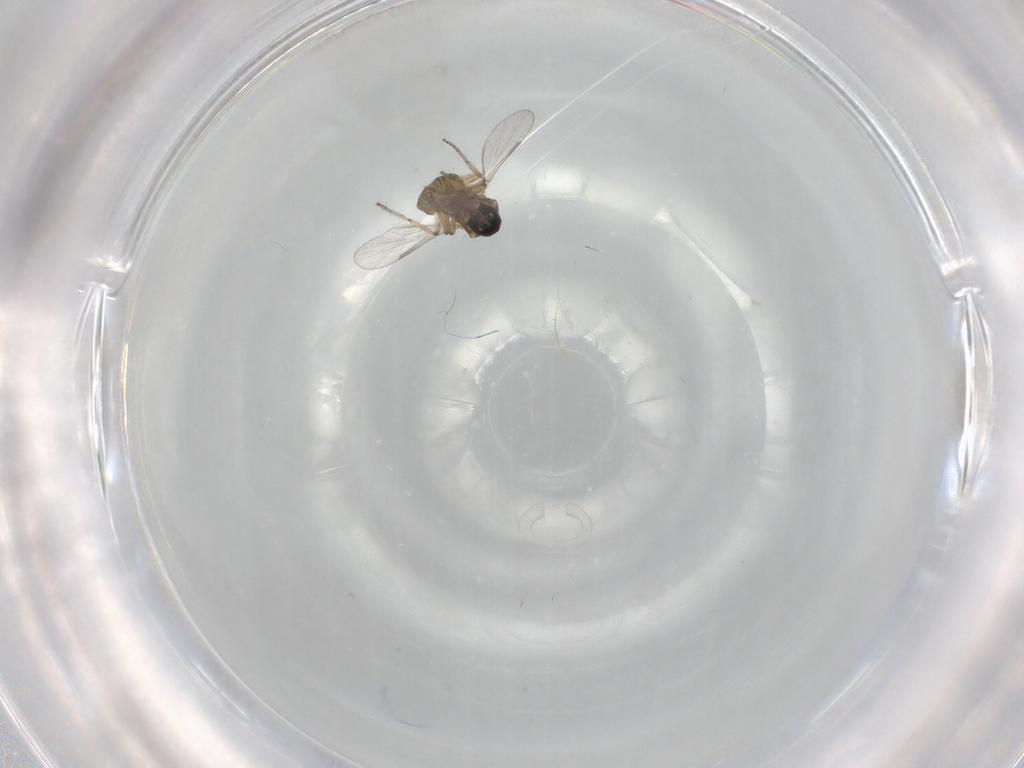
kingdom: Animalia
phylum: Arthropoda
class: Insecta
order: Diptera
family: Ceratopogonidae
